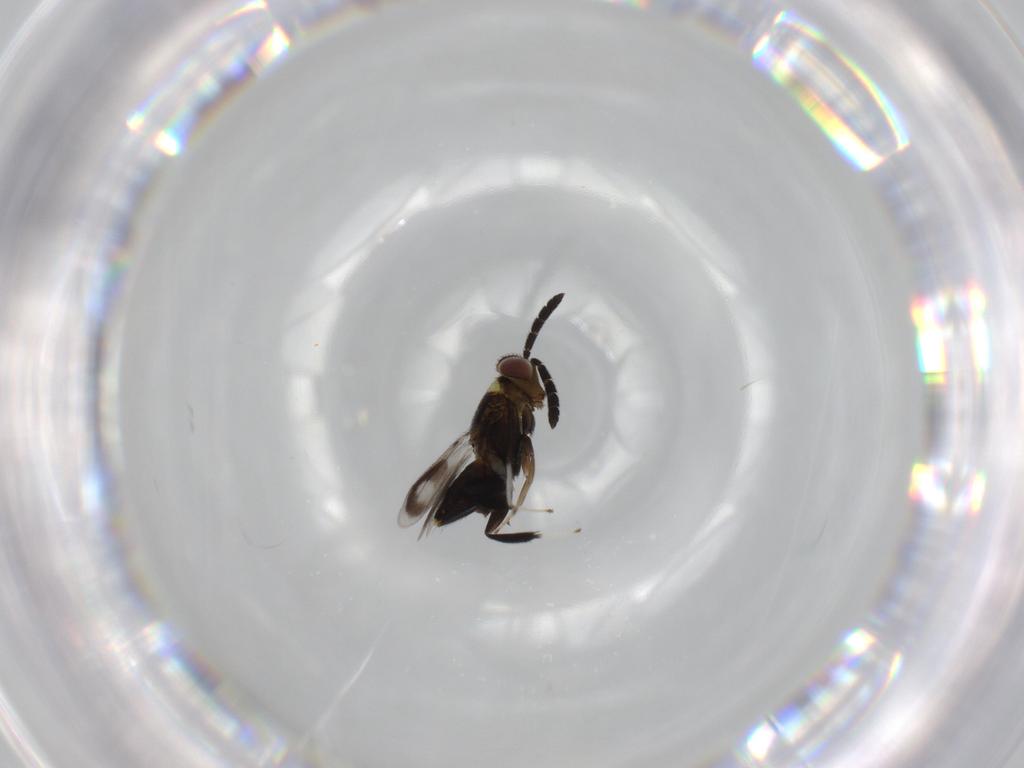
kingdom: Animalia
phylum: Arthropoda
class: Insecta
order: Hymenoptera
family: Aphelinidae
